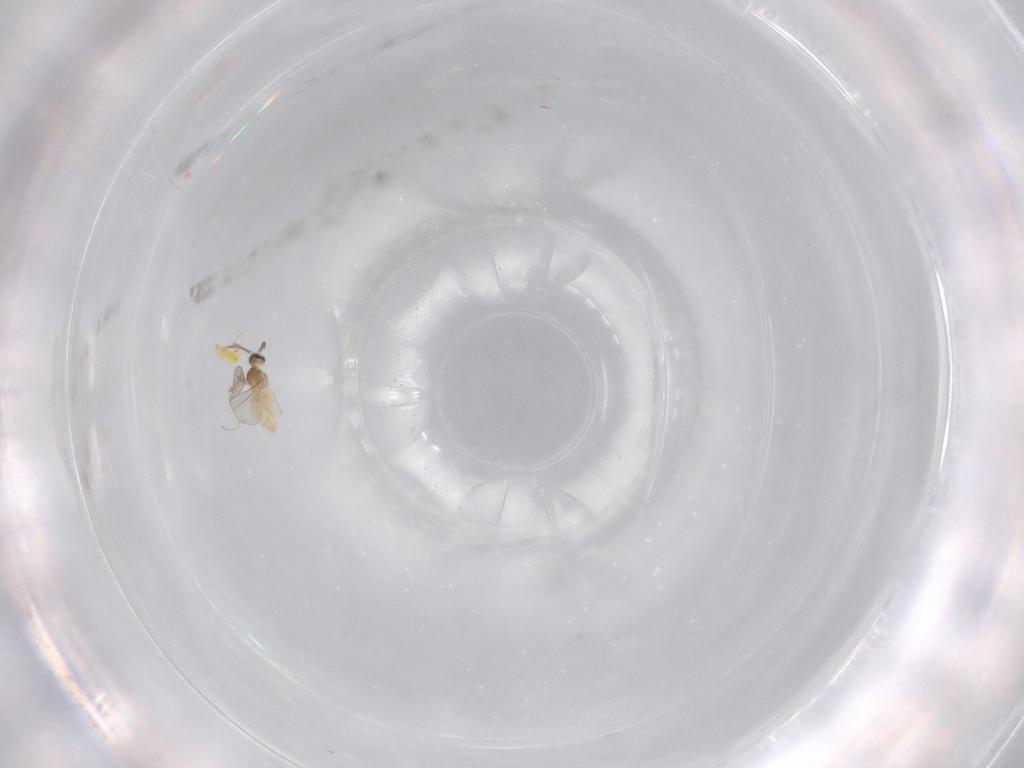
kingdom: Animalia
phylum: Arthropoda
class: Insecta
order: Diptera
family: Cecidomyiidae
